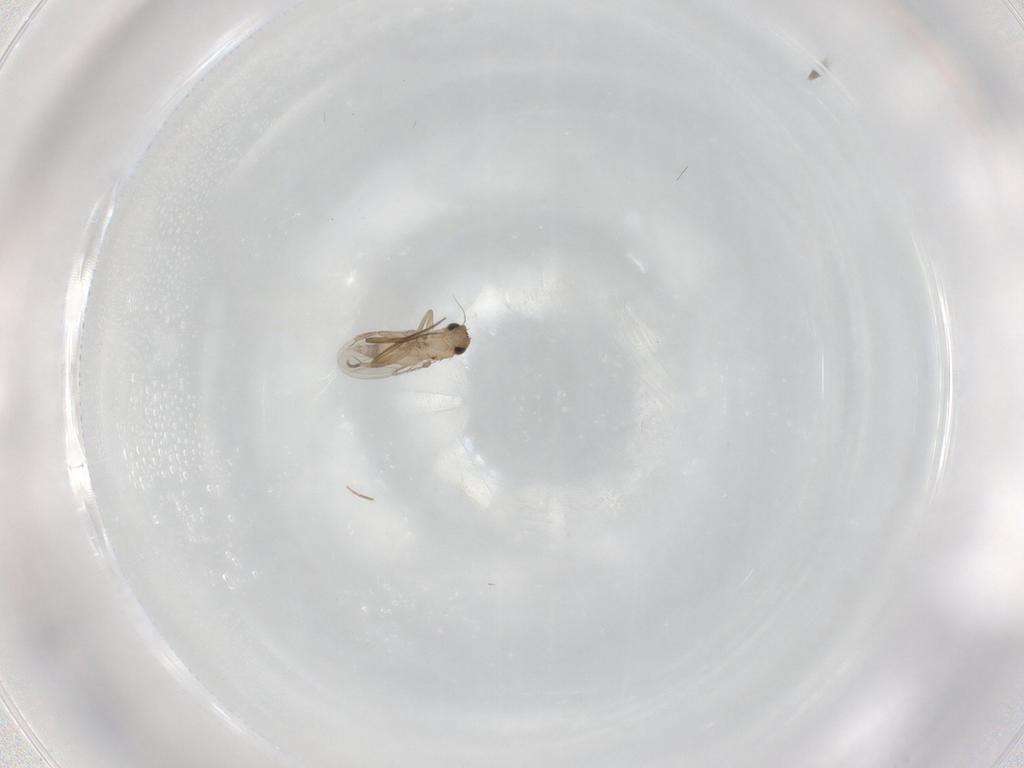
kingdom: Animalia
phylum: Arthropoda
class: Insecta
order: Diptera
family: Phoridae
